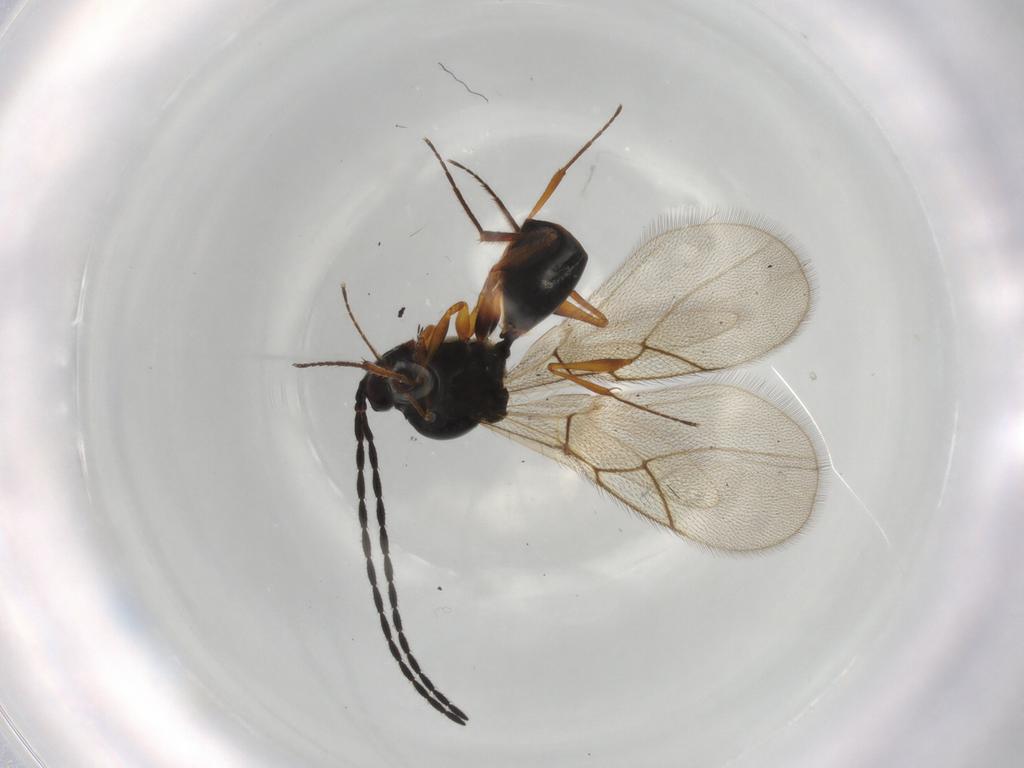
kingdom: Animalia
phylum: Arthropoda
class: Insecta
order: Hymenoptera
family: Figitidae
